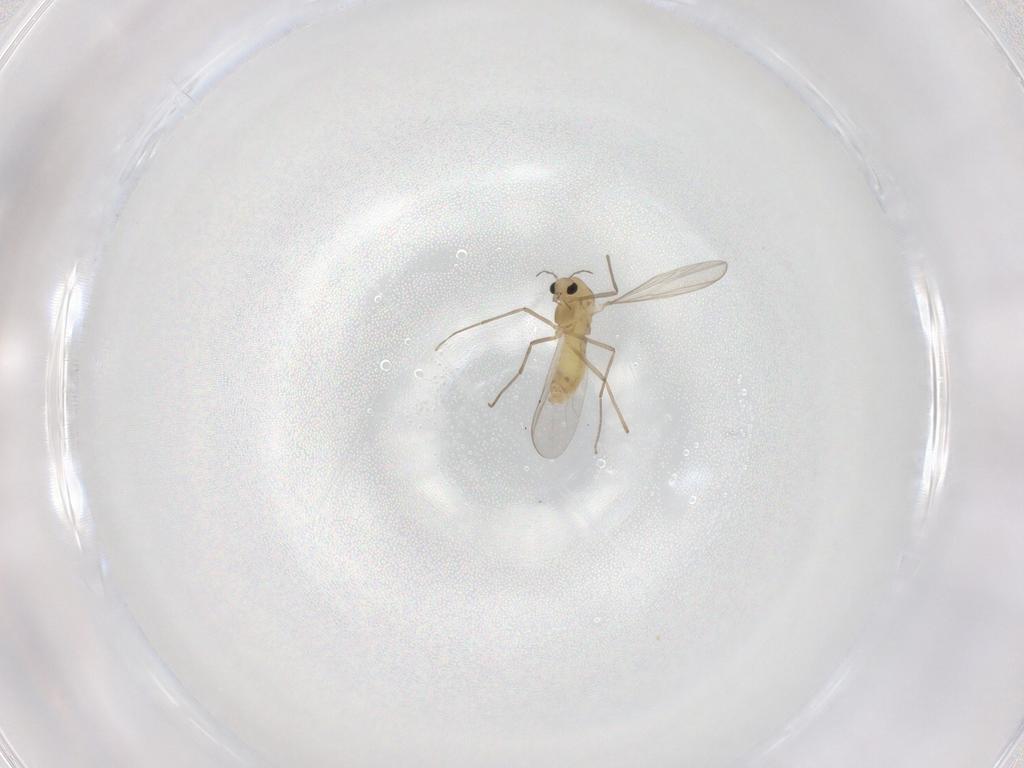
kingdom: Animalia
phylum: Arthropoda
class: Insecta
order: Diptera
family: Chironomidae
